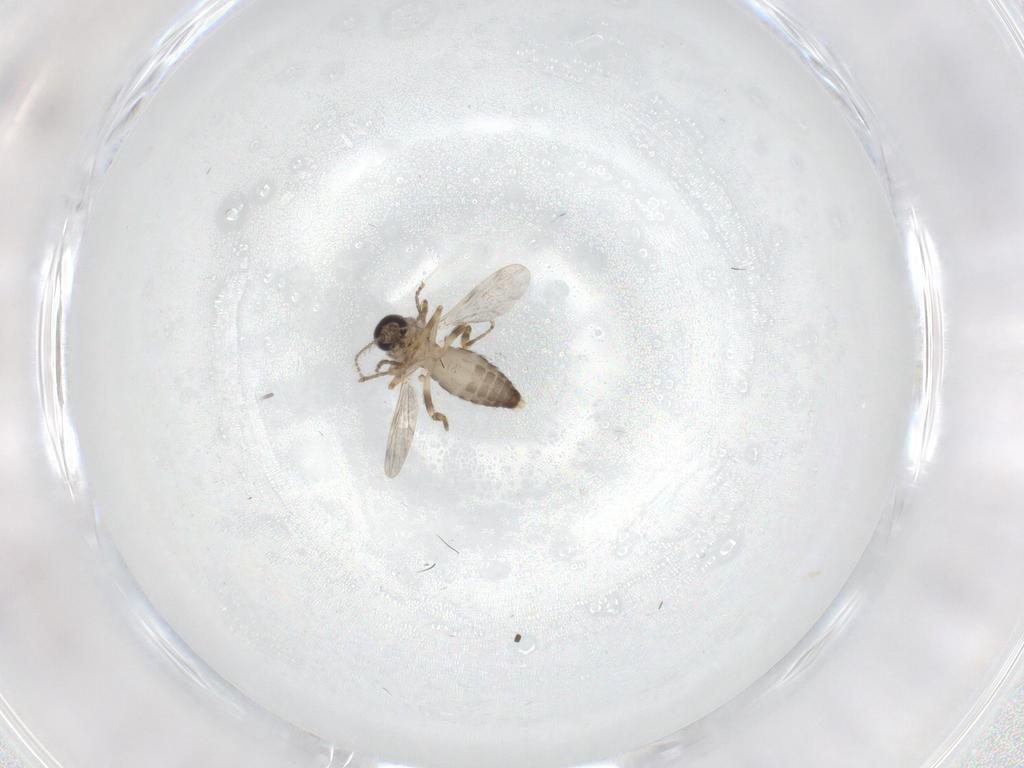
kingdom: Animalia
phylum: Arthropoda
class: Insecta
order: Diptera
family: Ceratopogonidae
